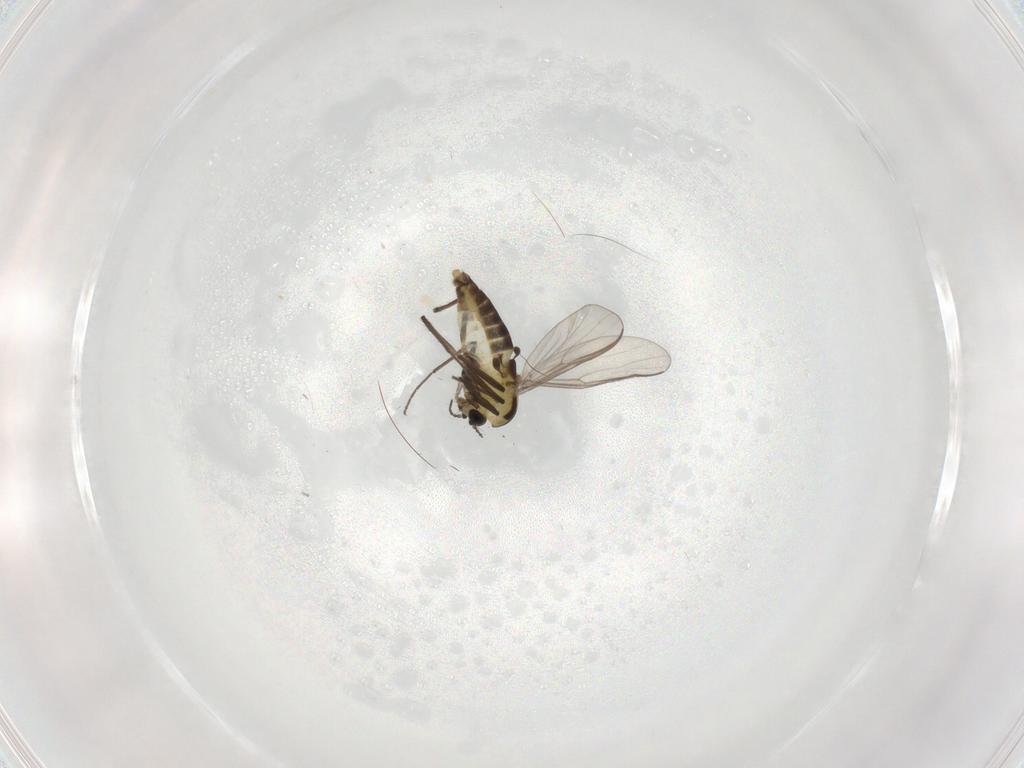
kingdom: Animalia
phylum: Arthropoda
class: Insecta
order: Diptera
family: Chironomidae
